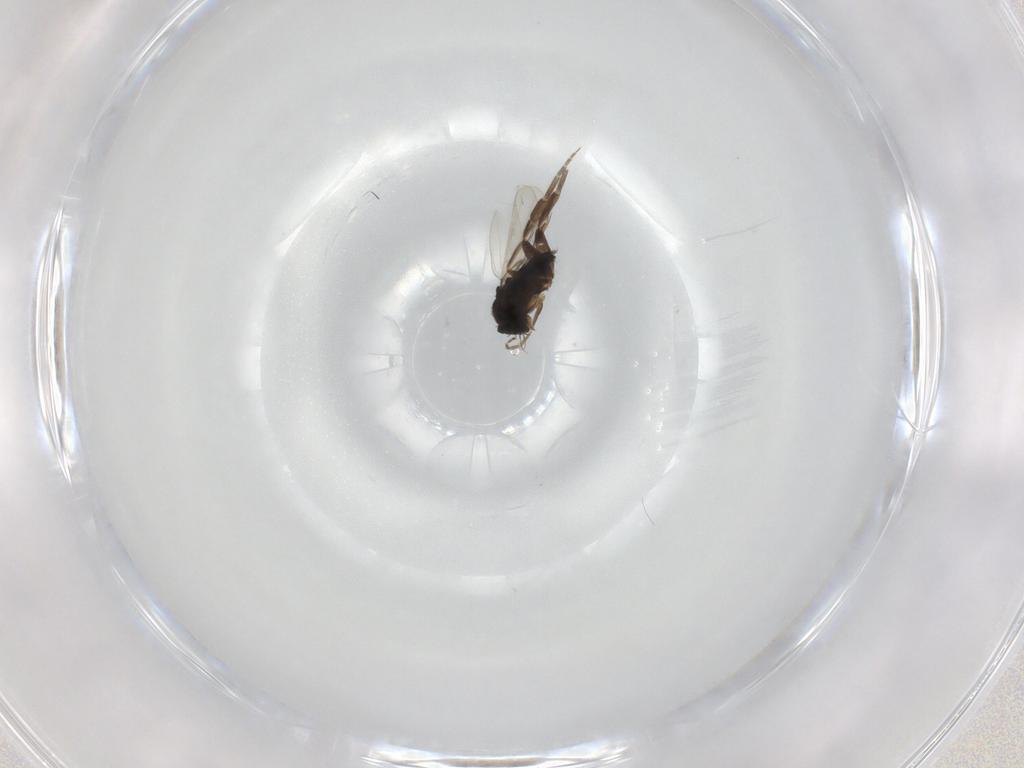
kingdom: Animalia
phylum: Arthropoda
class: Insecta
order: Diptera
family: Phoridae
